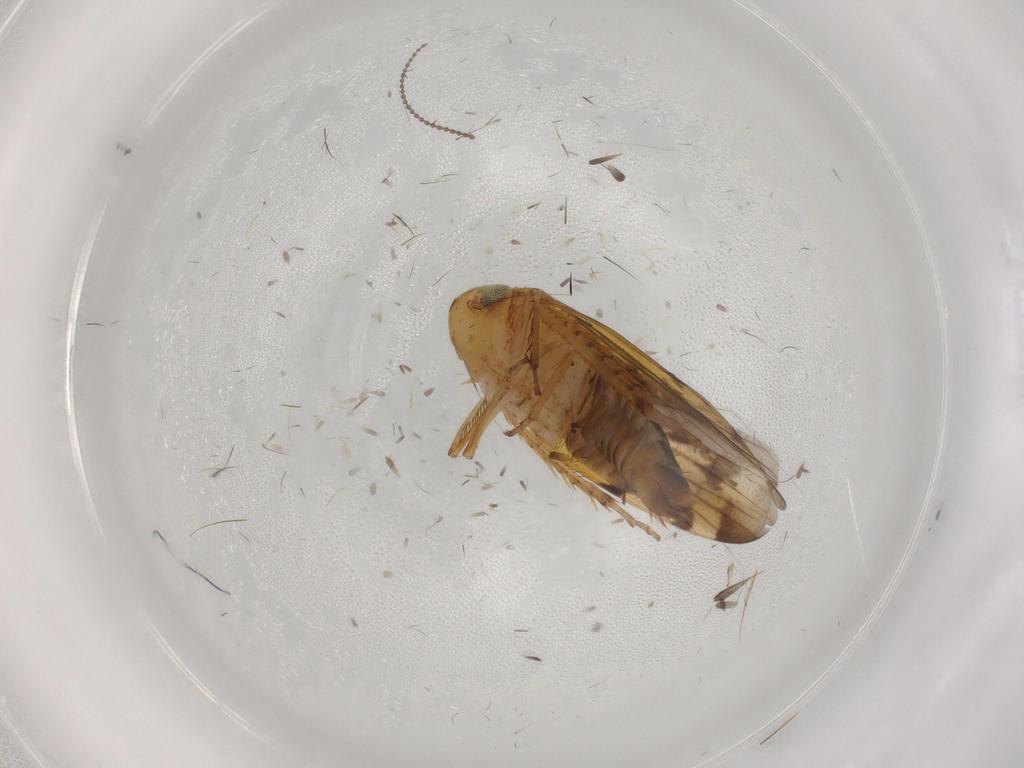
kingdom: Animalia
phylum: Arthropoda
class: Insecta
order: Hemiptera
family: Cicadellidae
